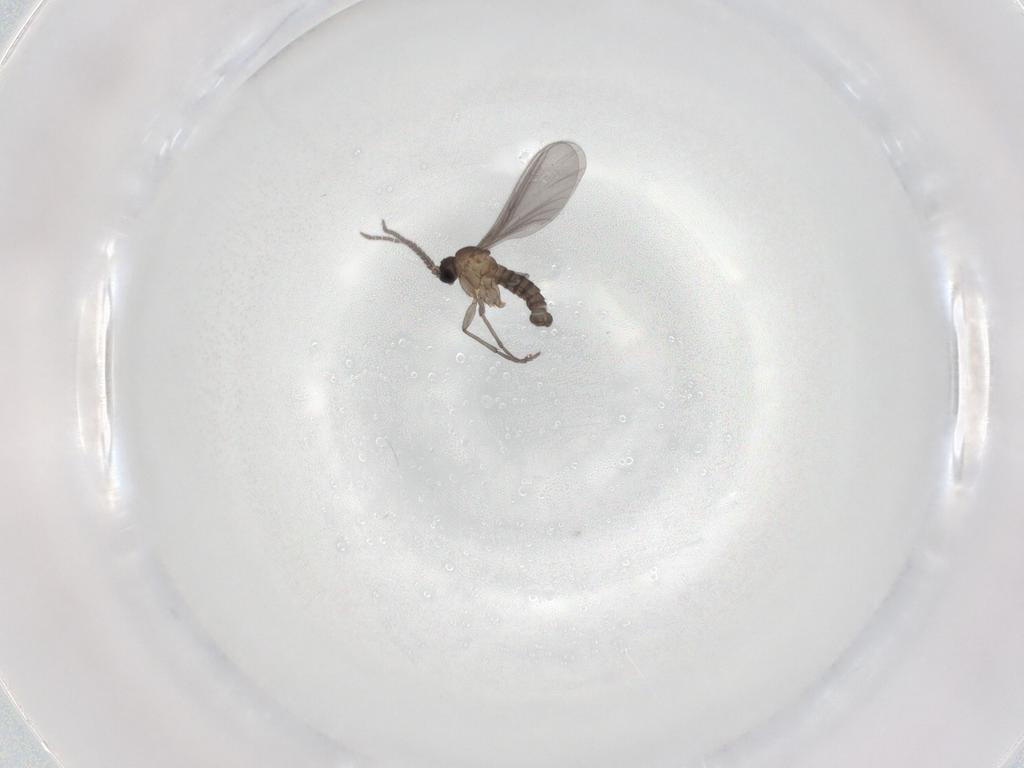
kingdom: Animalia
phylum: Arthropoda
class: Insecta
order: Diptera
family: Sciaridae
